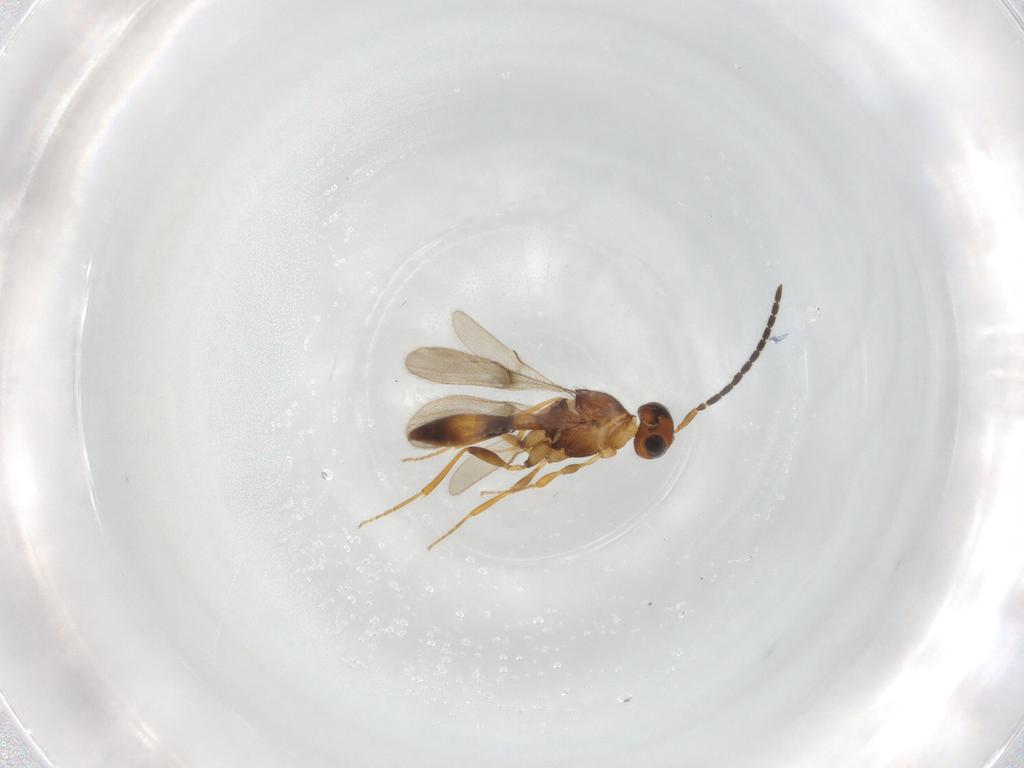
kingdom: Animalia
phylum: Arthropoda
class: Insecta
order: Hymenoptera
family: Scelionidae
